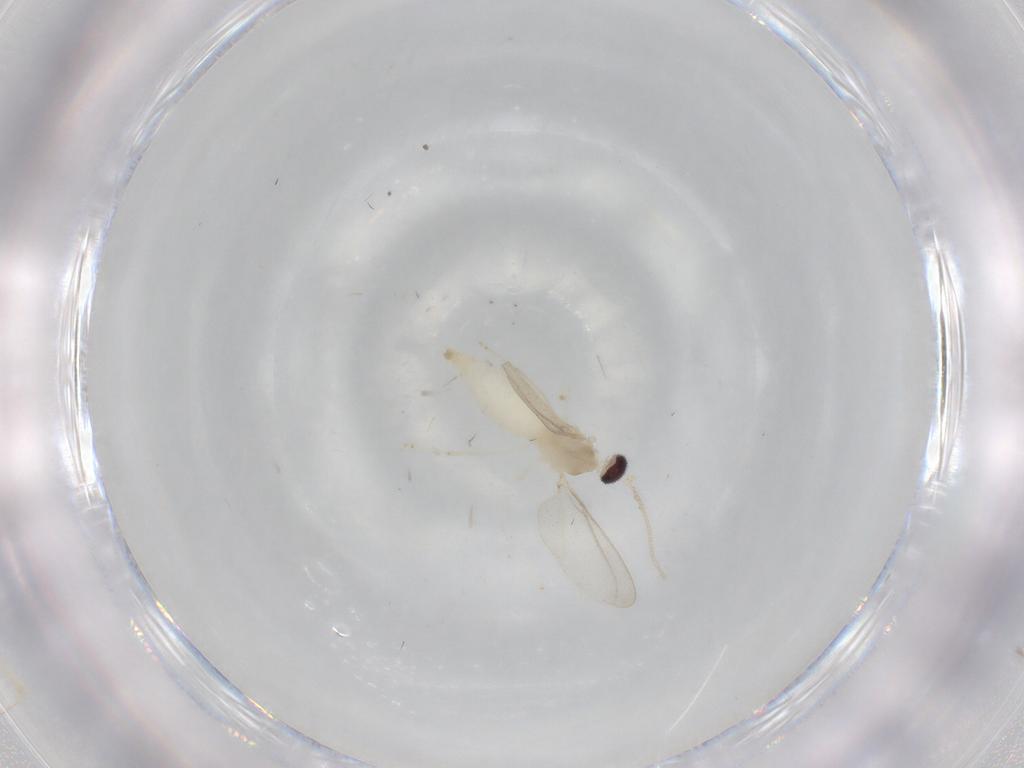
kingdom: Animalia
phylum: Arthropoda
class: Insecta
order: Diptera
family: Cecidomyiidae
